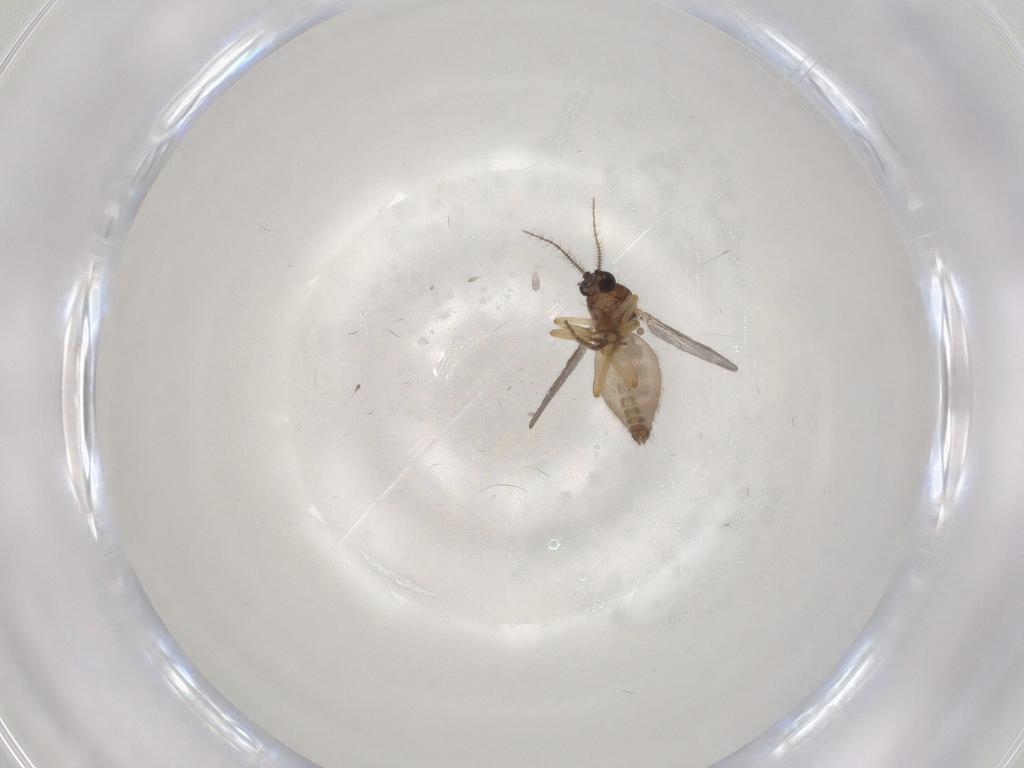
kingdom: Animalia
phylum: Arthropoda
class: Insecta
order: Diptera
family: Ceratopogonidae
